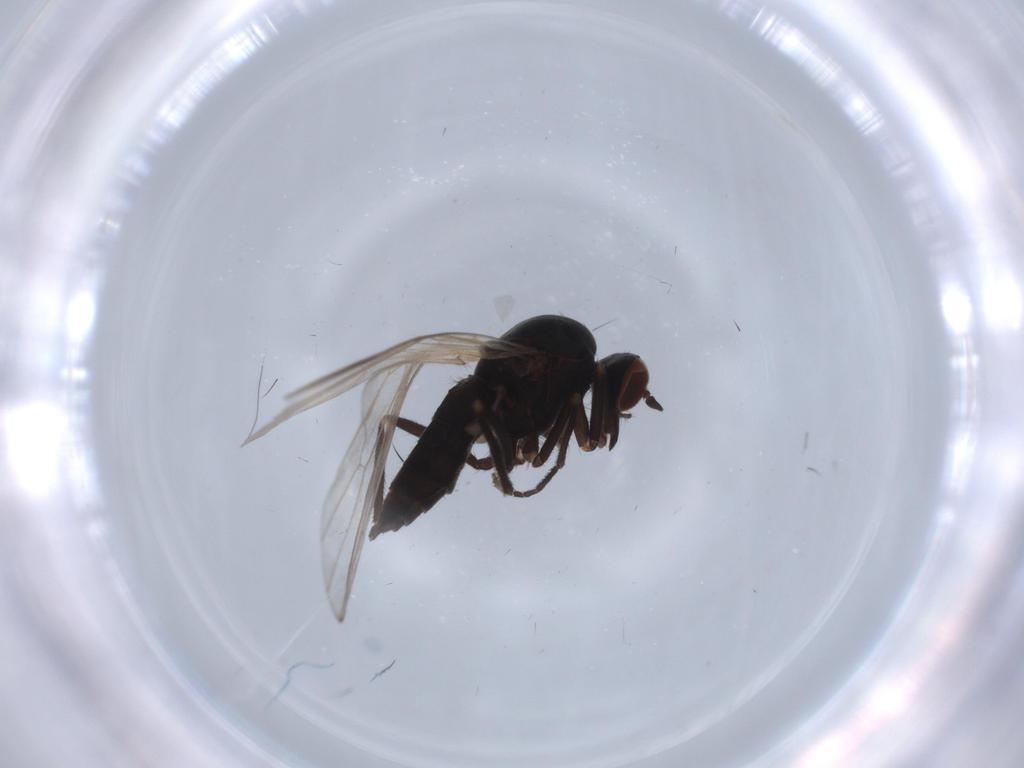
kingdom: Animalia
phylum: Arthropoda
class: Insecta
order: Diptera
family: Empididae
